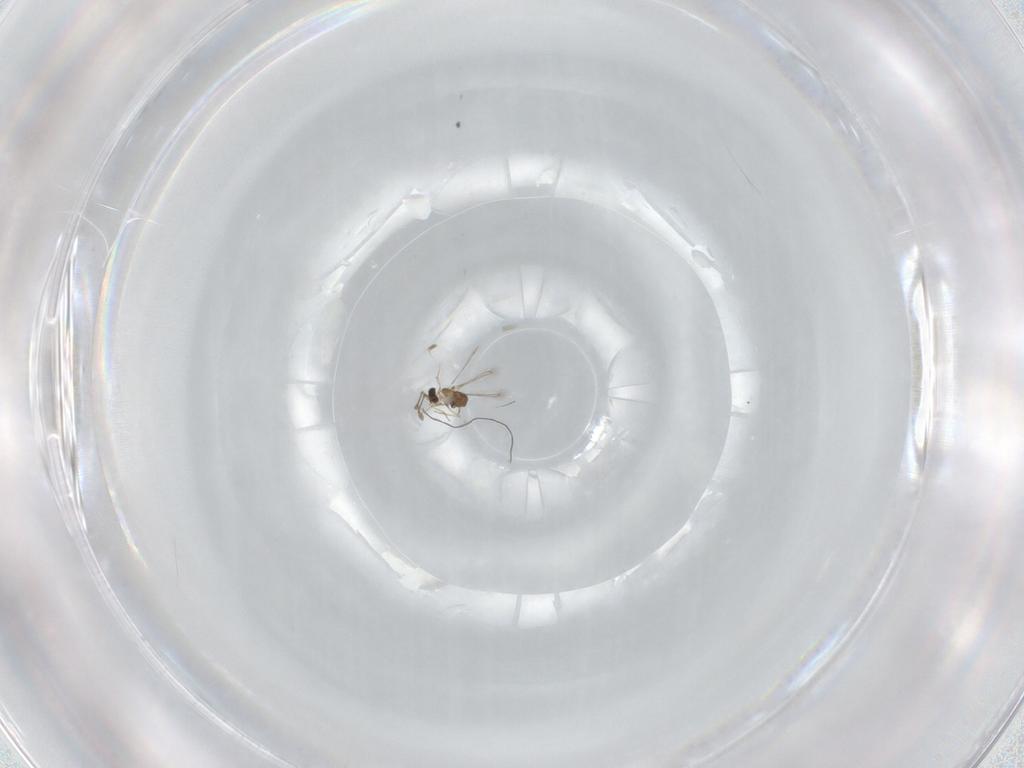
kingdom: Animalia
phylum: Arthropoda
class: Insecta
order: Hymenoptera
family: Mymaridae
